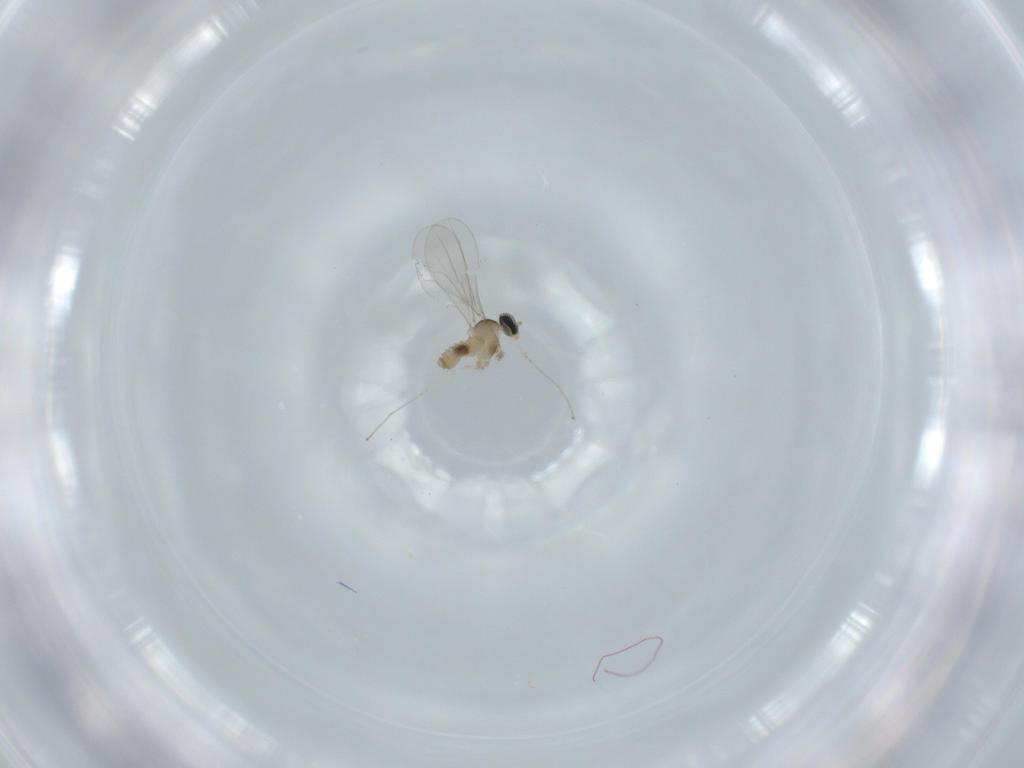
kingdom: Animalia
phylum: Arthropoda
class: Insecta
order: Diptera
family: Cecidomyiidae
